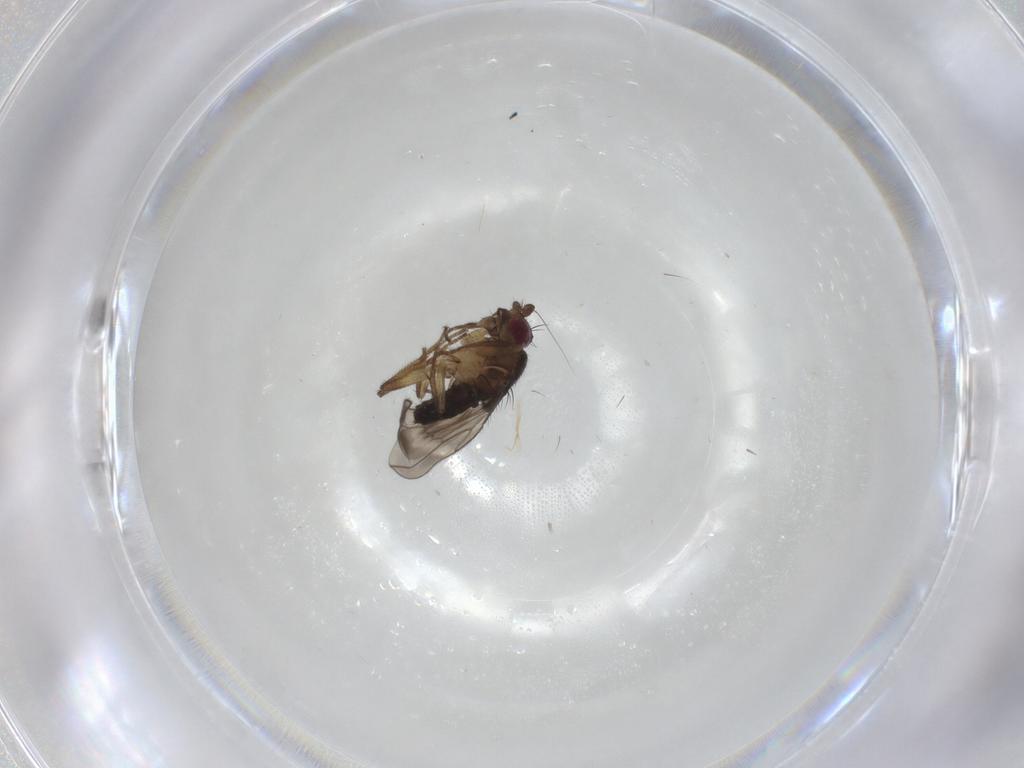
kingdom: Animalia
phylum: Arthropoda
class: Insecta
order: Diptera
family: Sphaeroceridae
